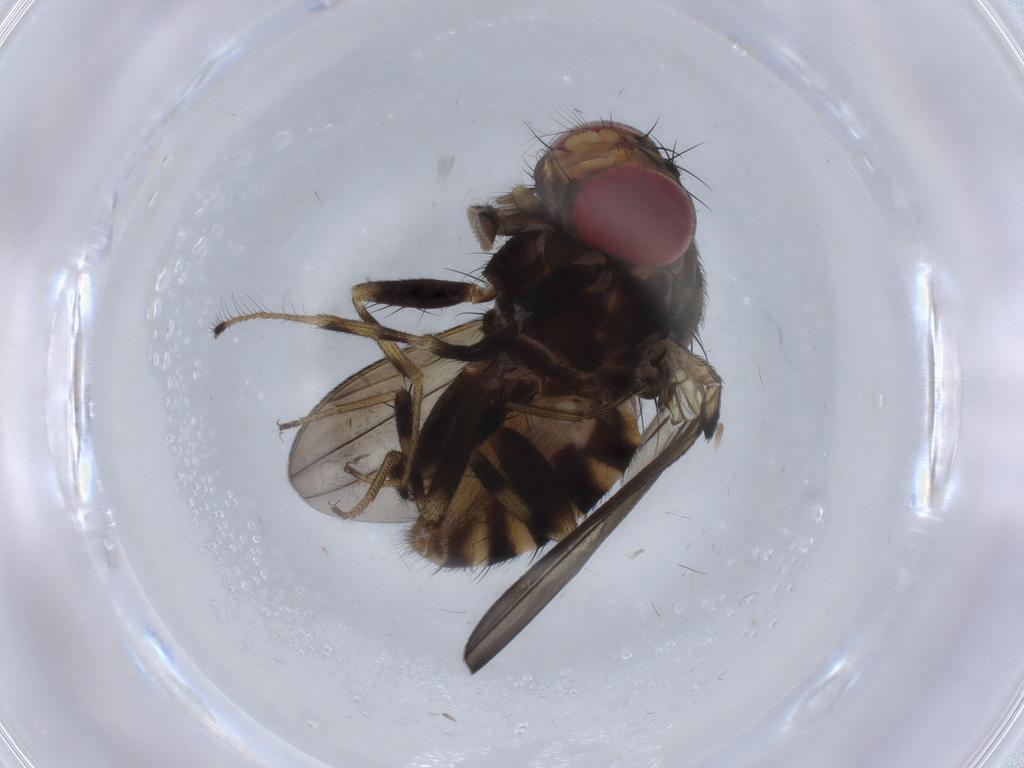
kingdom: Animalia
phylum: Arthropoda
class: Insecta
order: Diptera
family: Drosophilidae
